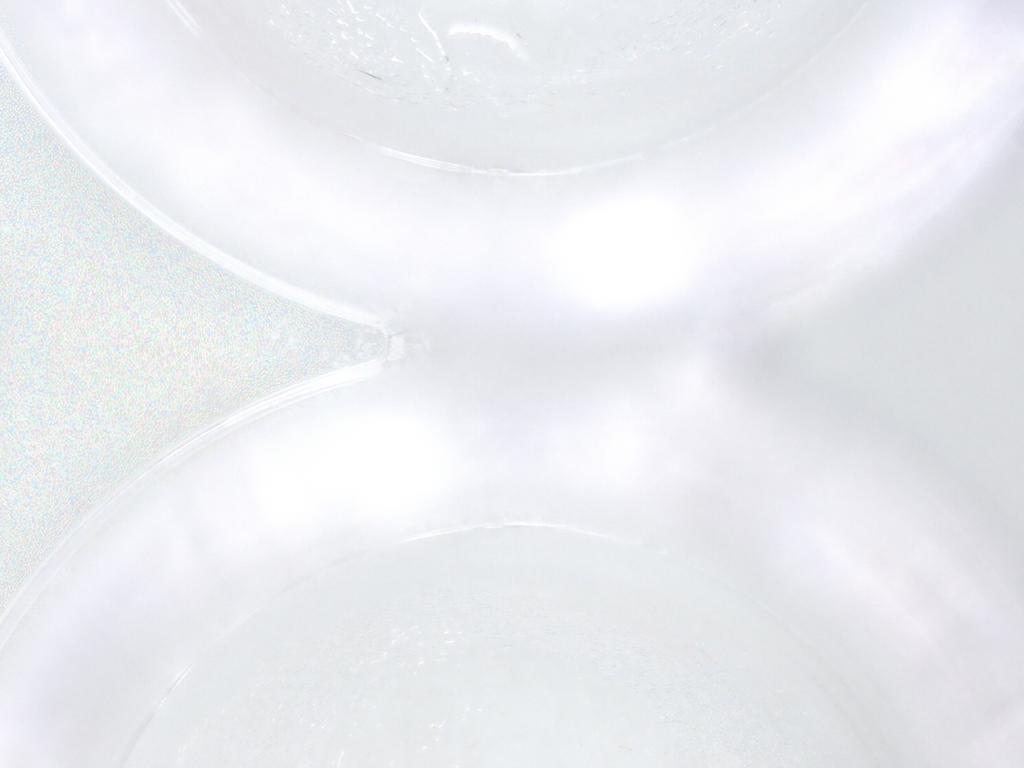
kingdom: Animalia
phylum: Arthropoda
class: Insecta
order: Diptera
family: Cecidomyiidae
